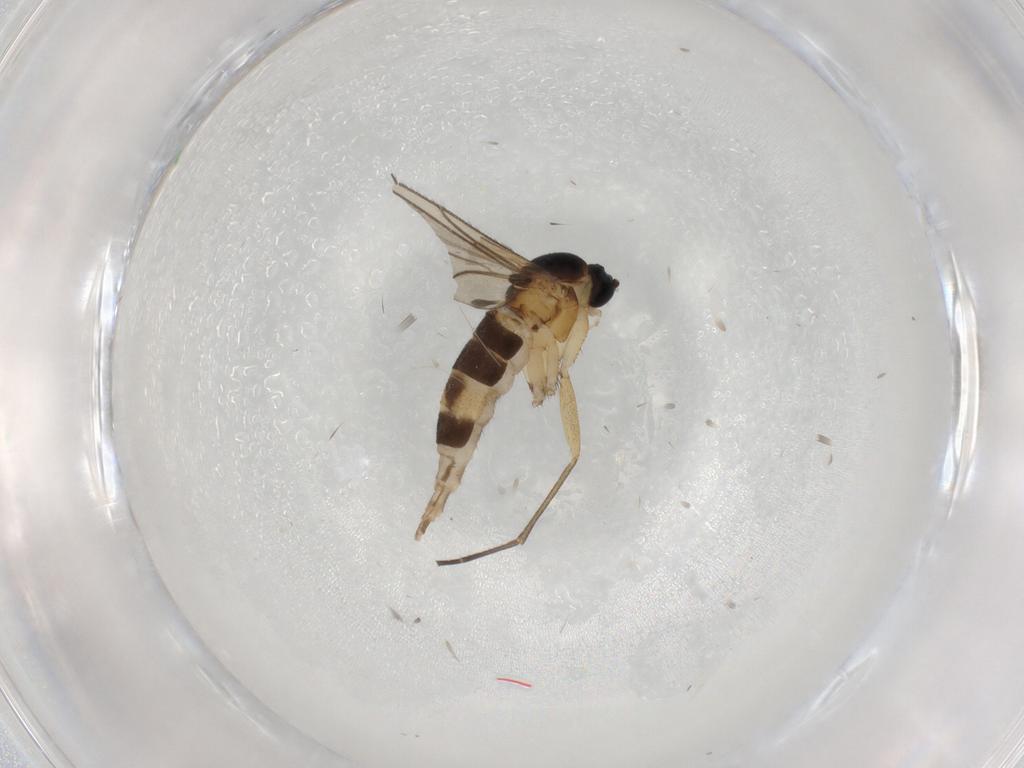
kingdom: Animalia
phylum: Arthropoda
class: Insecta
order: Diptera
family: Sciaridae
